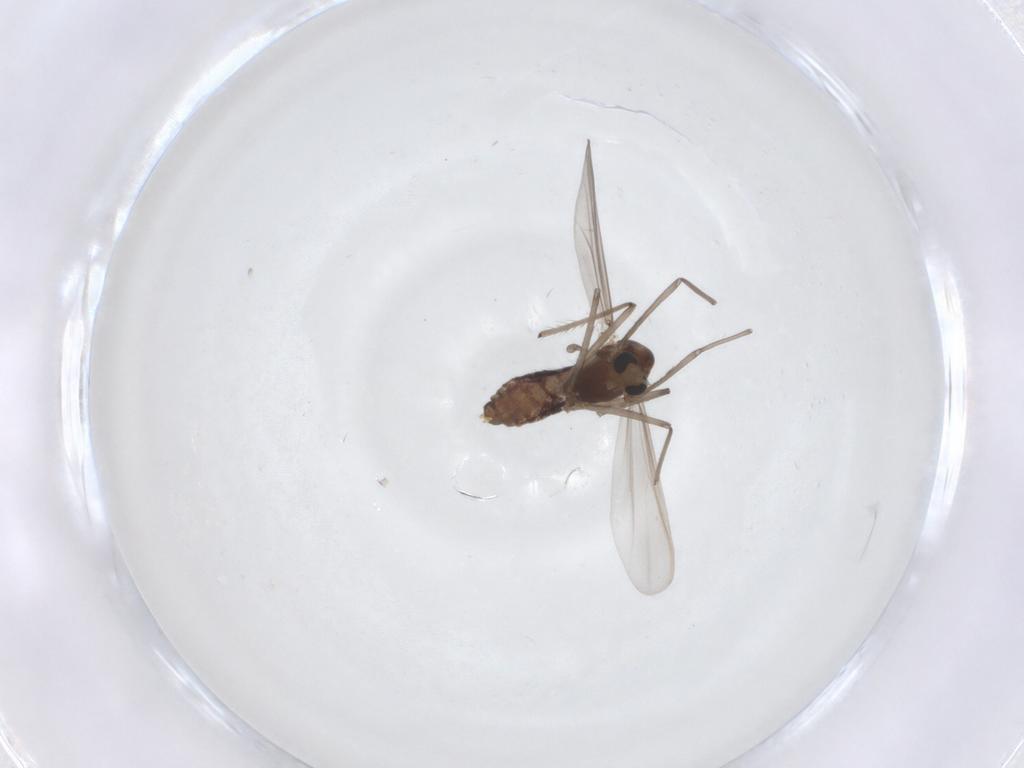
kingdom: Animalia
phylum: Arthropoda
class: Insecta
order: Diptera
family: Chironomidae
